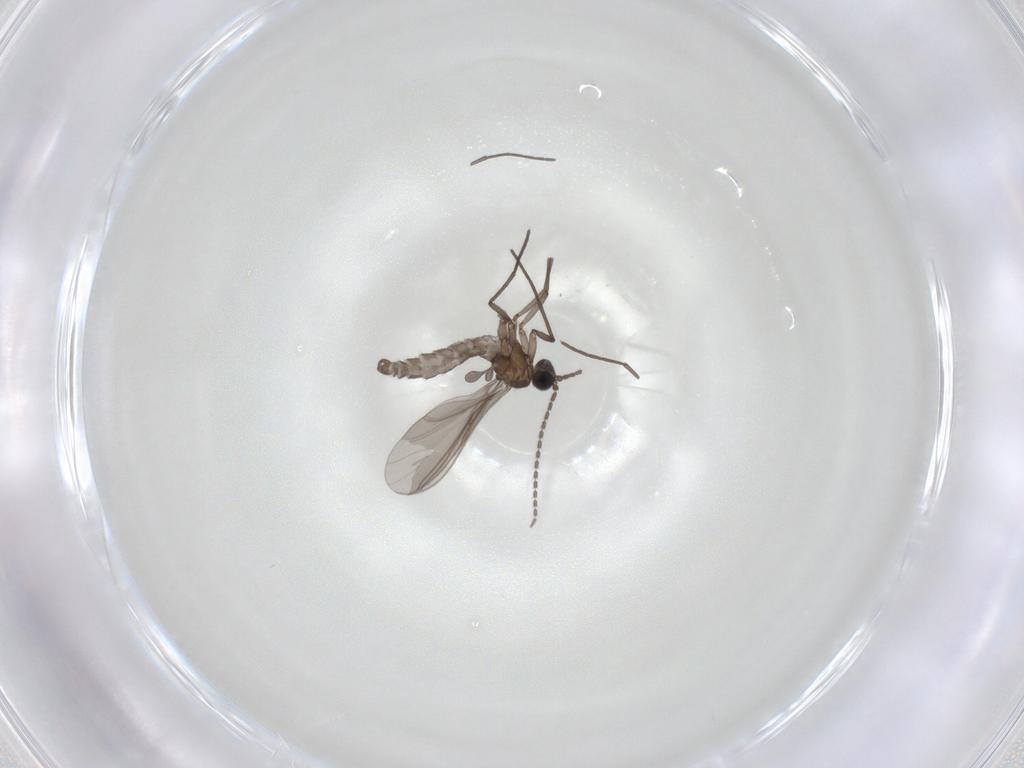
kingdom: Animalia
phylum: Arthropoda
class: Insecta
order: Diptera
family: Sciaridae
